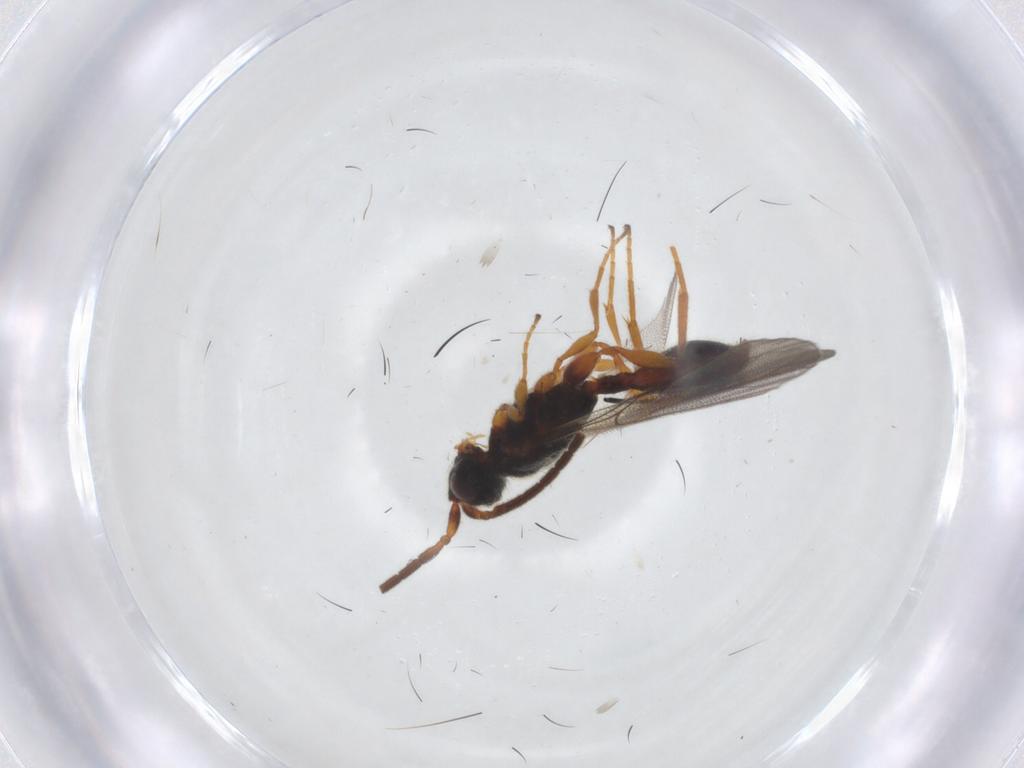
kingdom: Animalia
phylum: Arthropoda
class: Insecta
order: Hymenoptera
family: Diapriidae
